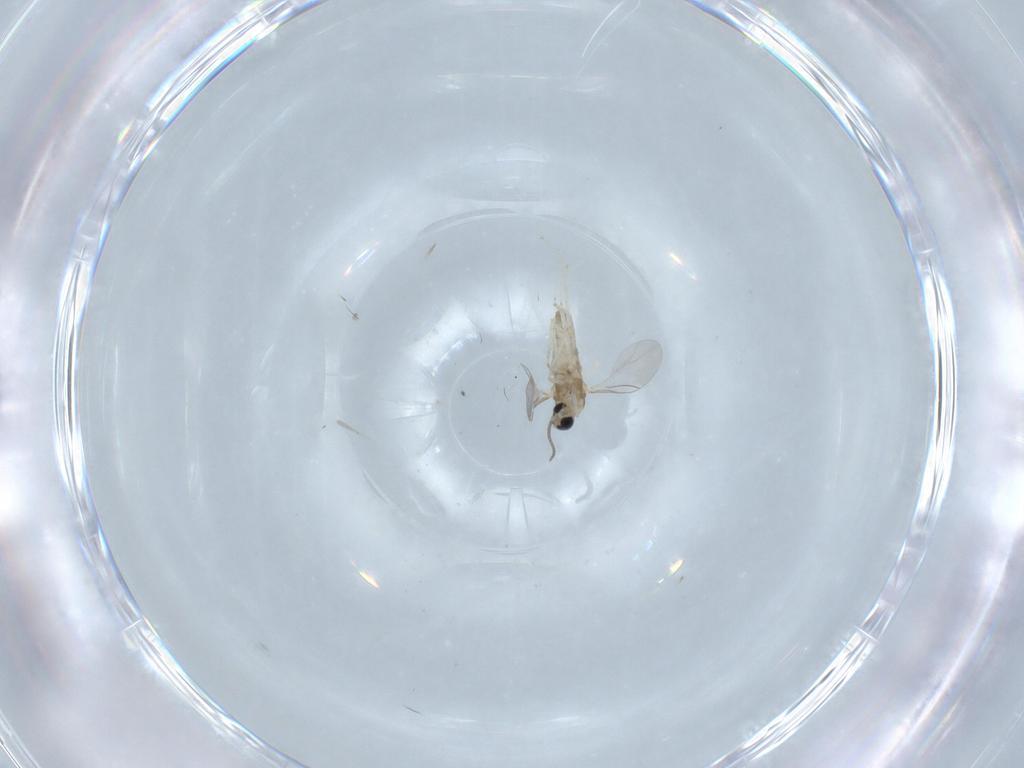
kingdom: Animalia
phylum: Arthropoda
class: Insecta
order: Diptera
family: Cecidomyiidae
